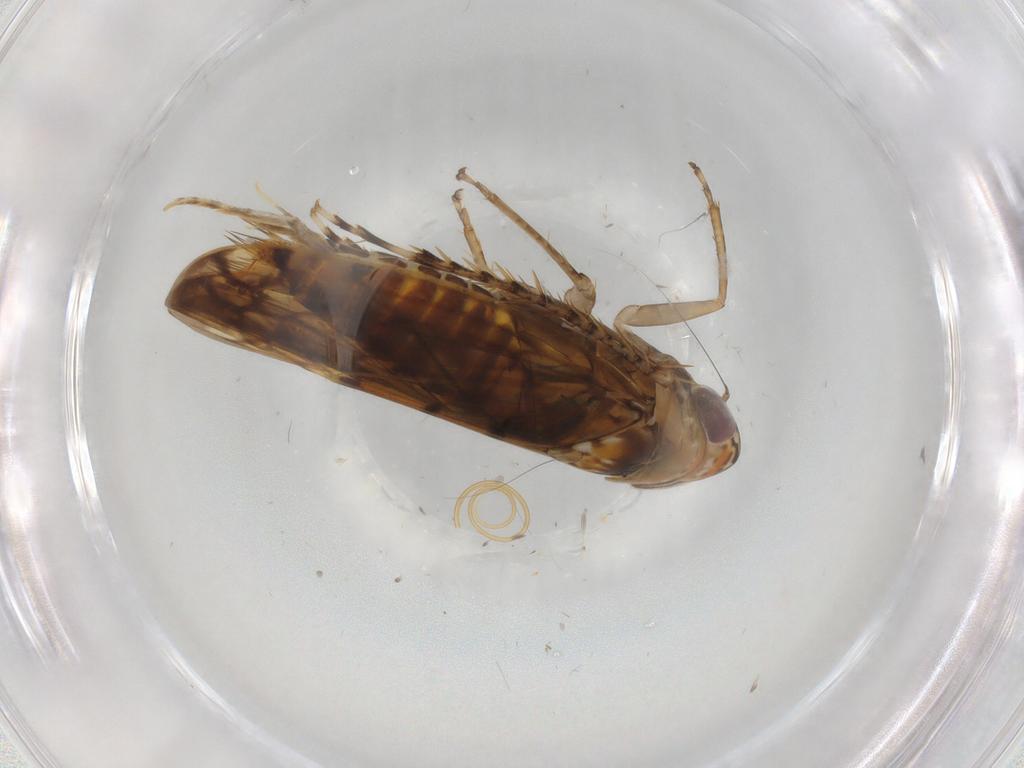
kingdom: Animalia
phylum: Arthropoda
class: Insecta
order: Hemiptera
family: Cicadellidae
